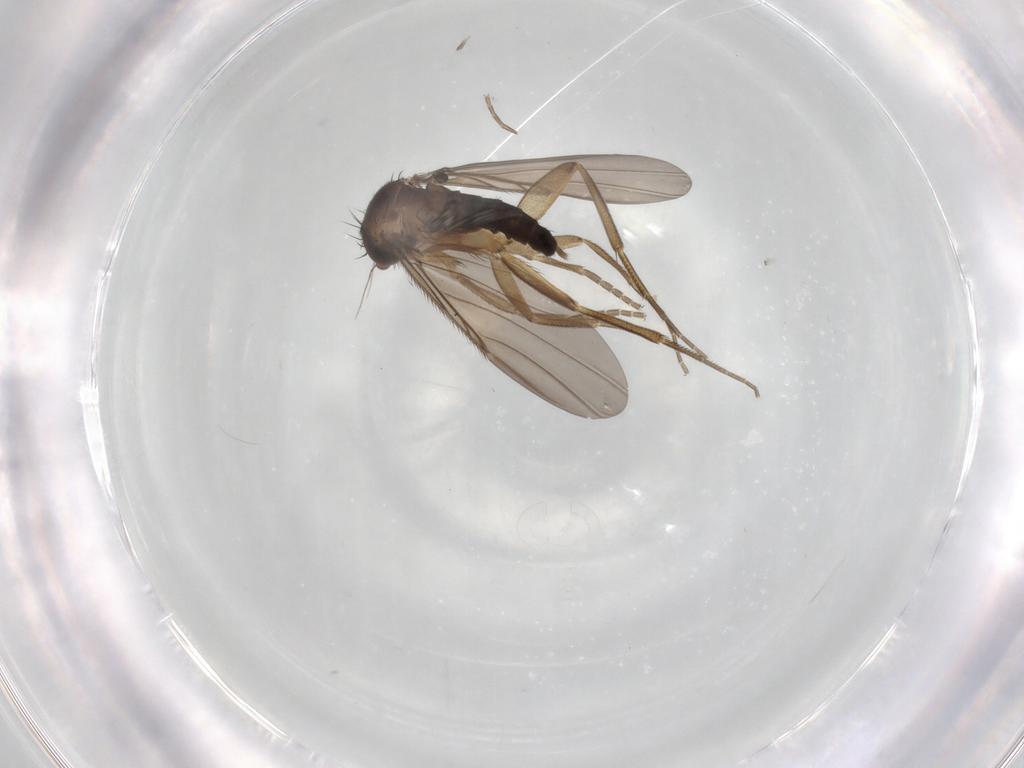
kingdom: Animalia
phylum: Arthropoda
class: Insecta
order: Diptera
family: Phoridae
